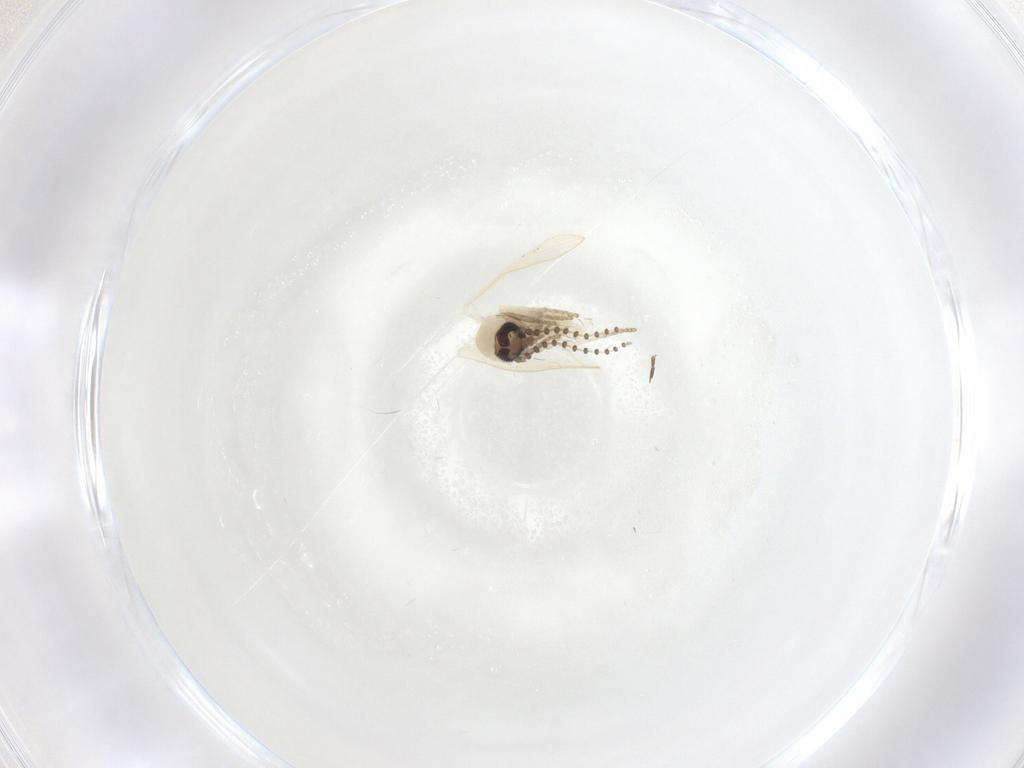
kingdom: Animalia
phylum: Arthropoda
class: Insecta
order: Diptera
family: Psychodidae
